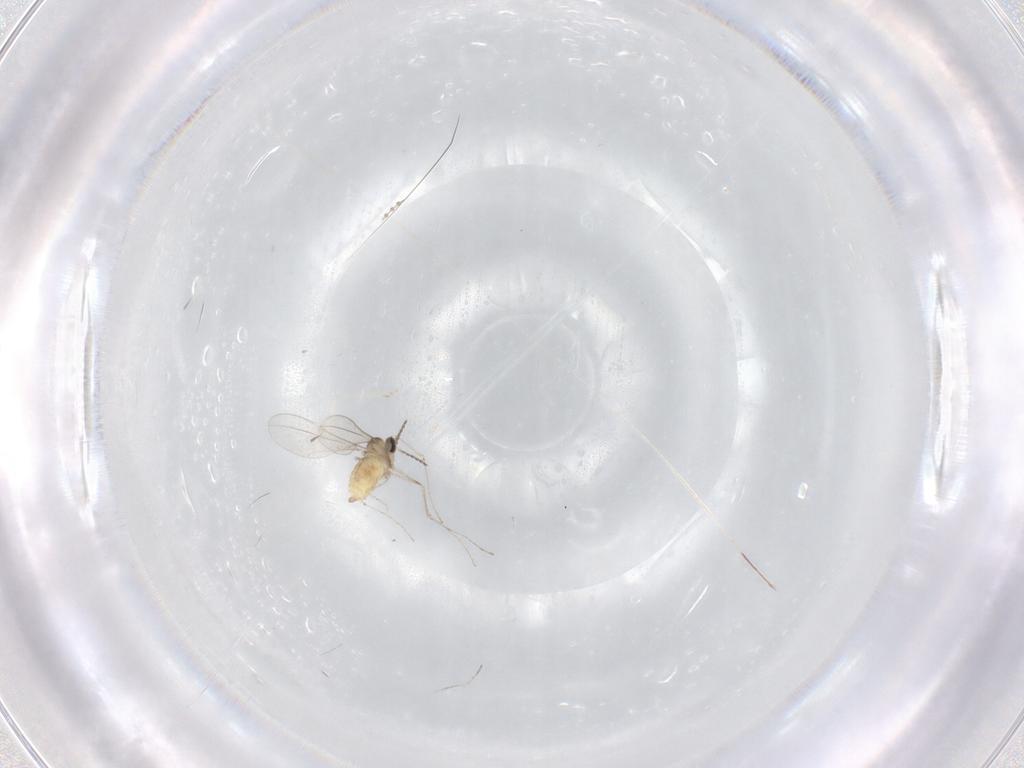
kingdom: Animalia
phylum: Arthropoda
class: Insecta
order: Diptera
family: Cecidomyiidae
